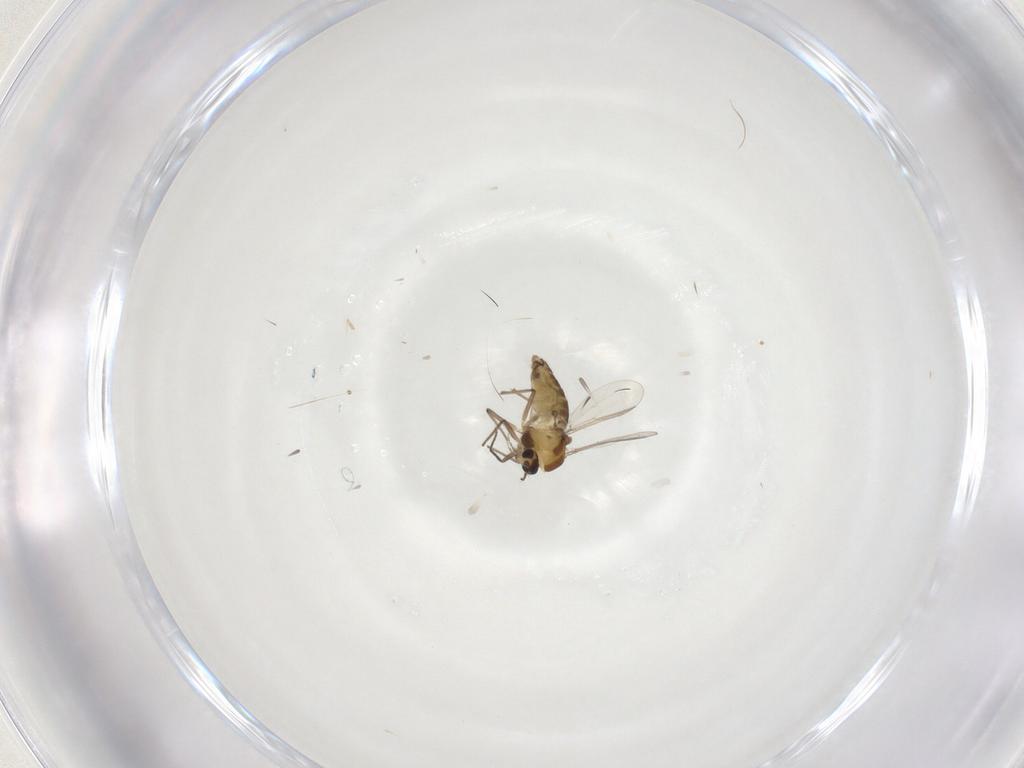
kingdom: Animalia
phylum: Arthropoda
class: Insecta
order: Diptera
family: Chironomidae
